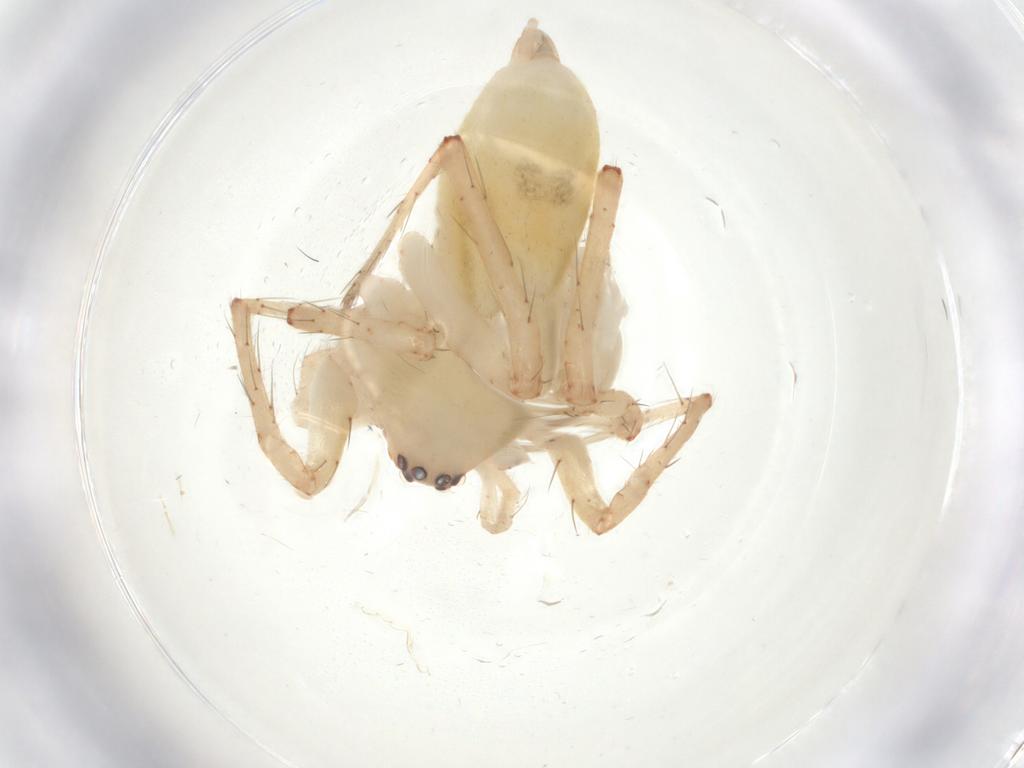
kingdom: Animalia
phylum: Arthropoda
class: Arachnida
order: Araneae
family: Anyphaenidae
